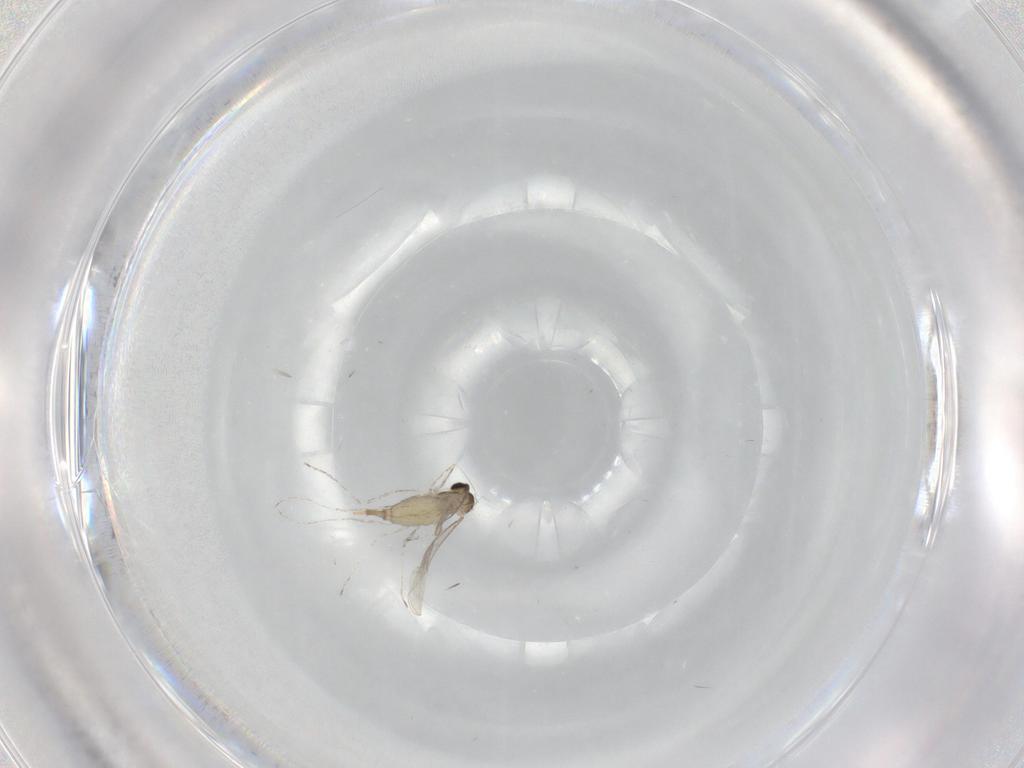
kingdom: Animalia
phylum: Arthropoda
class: Insecta
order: Diptera
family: Cecidomyiidae
